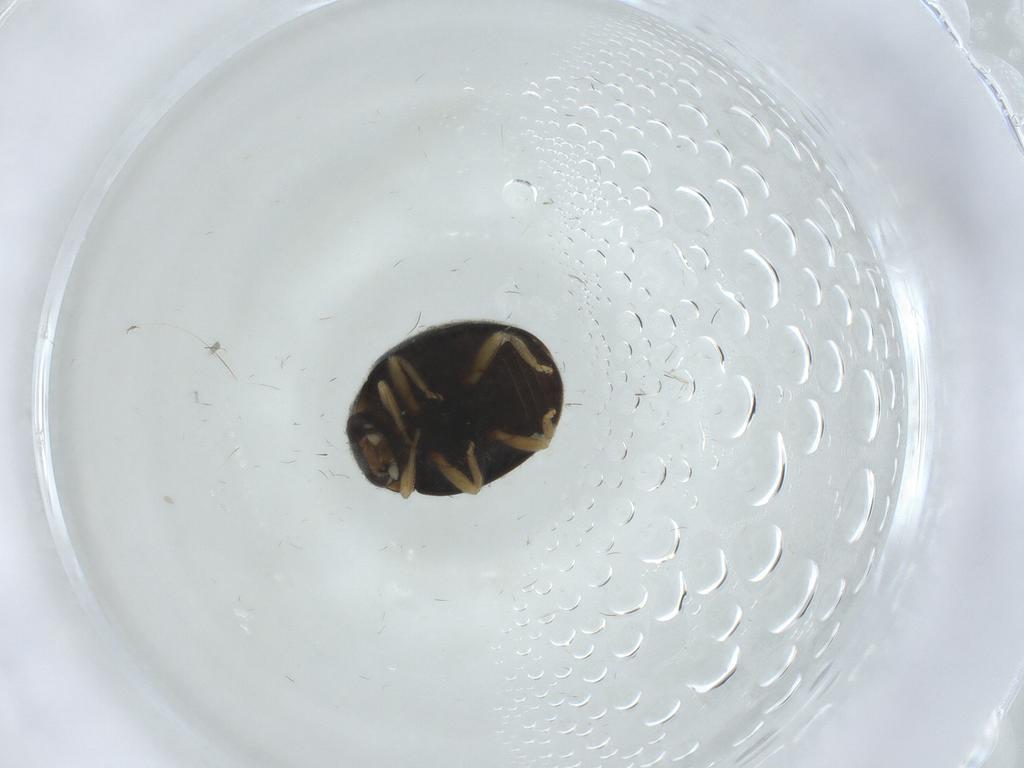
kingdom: Animalia
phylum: Arthropoda
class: Insecta
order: Coleoptera
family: Coccinellidae
